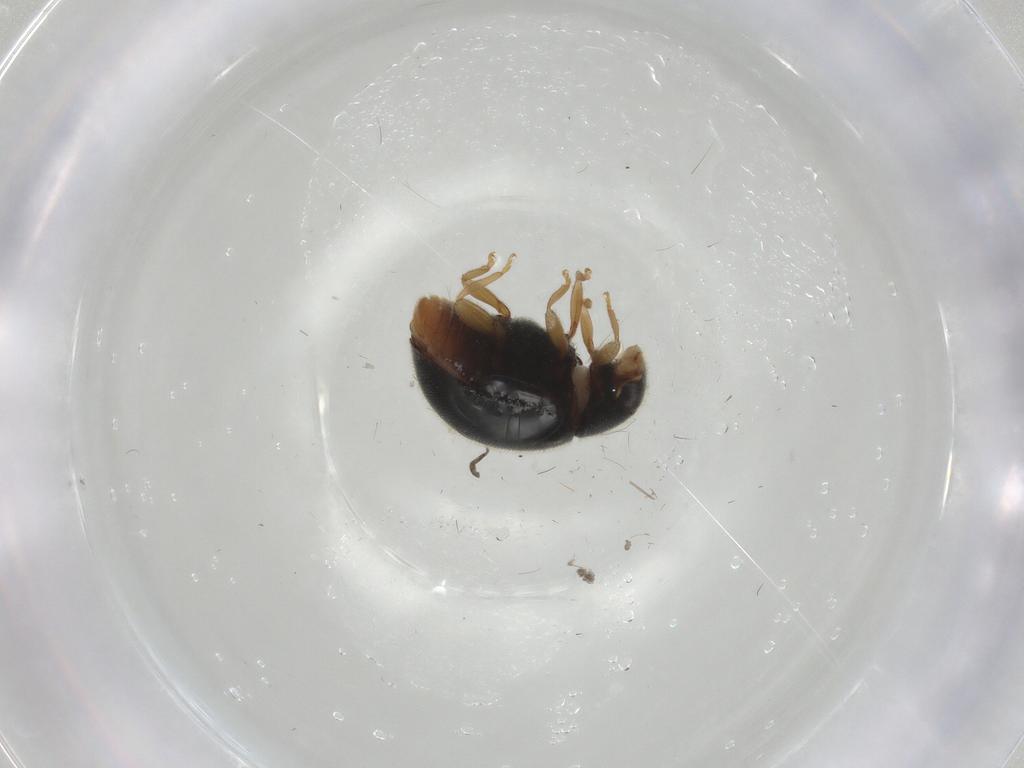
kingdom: Animalia
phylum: Arthropoda
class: Insecta
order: Coleoptera
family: Coccinellidae
